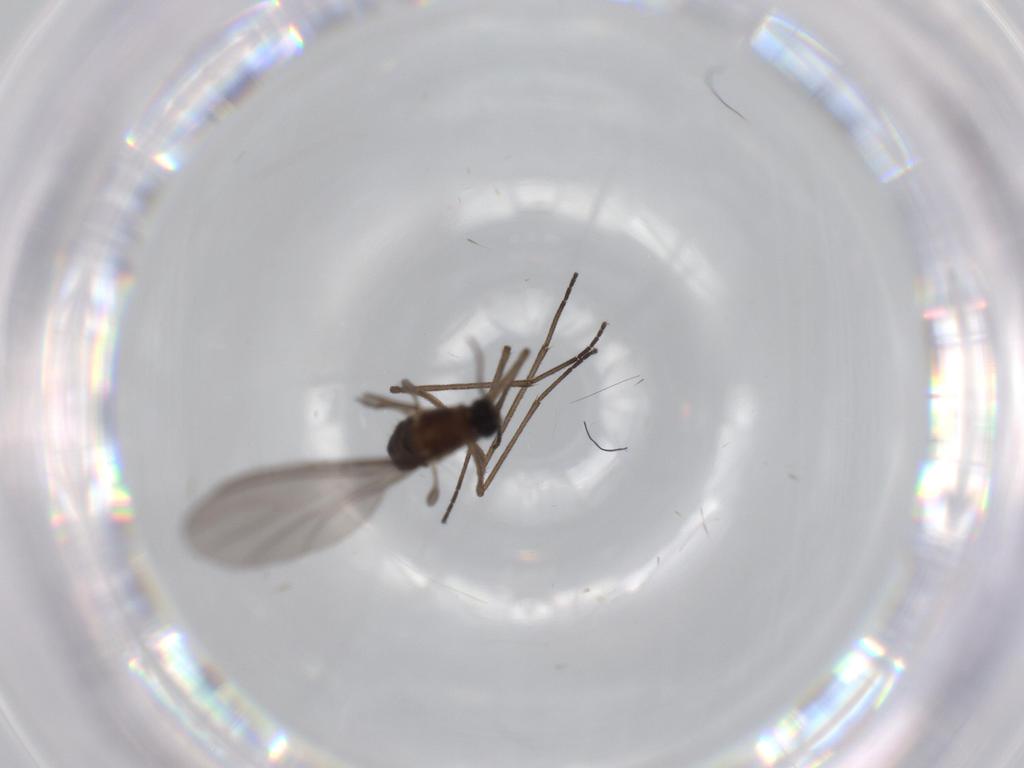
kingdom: Animalia
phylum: Arthropoda
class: Insecta
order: Diptera
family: Sciaridae
